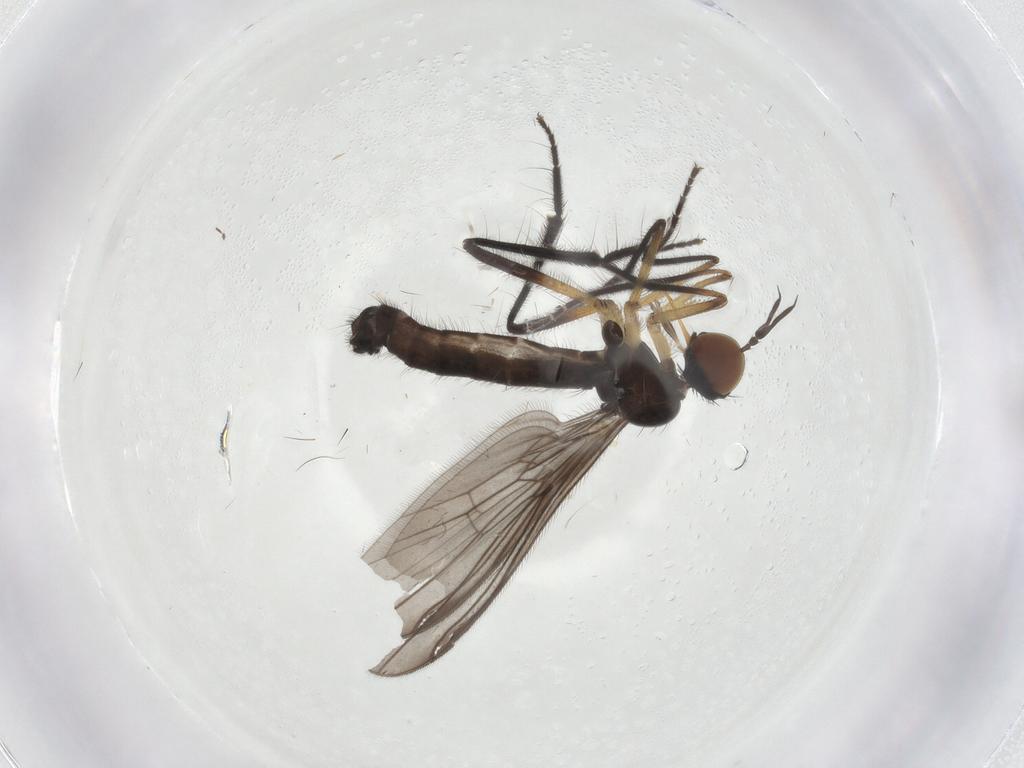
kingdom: Animalia
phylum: Arthropoda
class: Insecta
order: Diptera
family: Empididae
